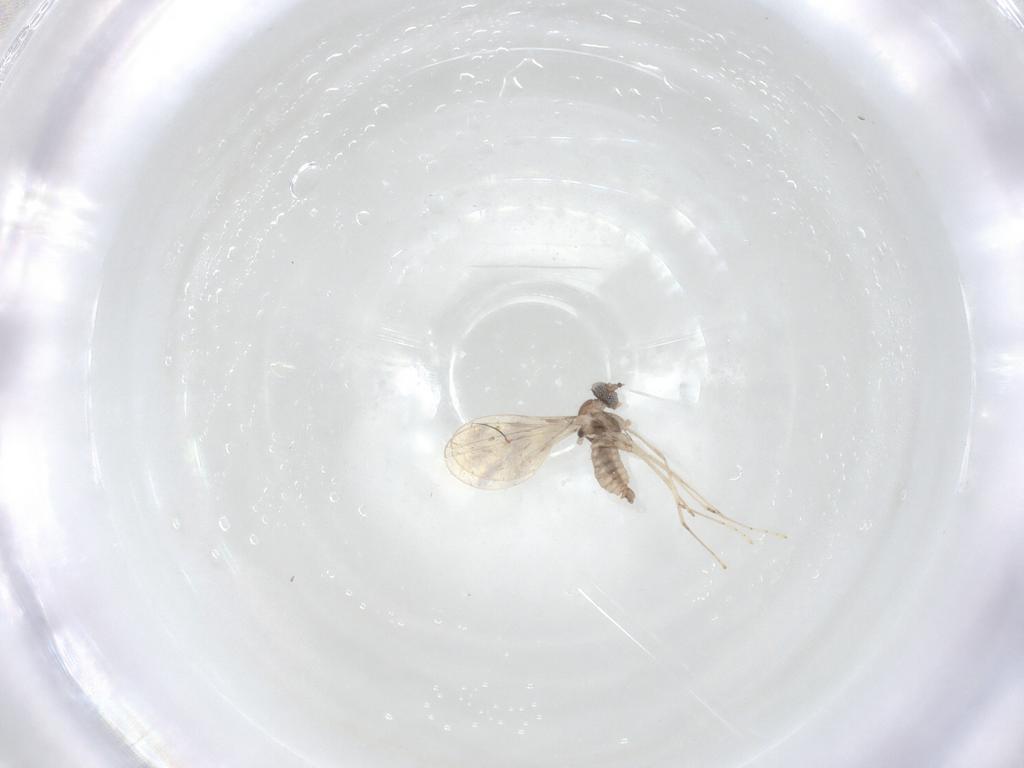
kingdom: Animalia
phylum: Arthropoda
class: Insecta
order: Diptera
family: Cecidomyiidae
